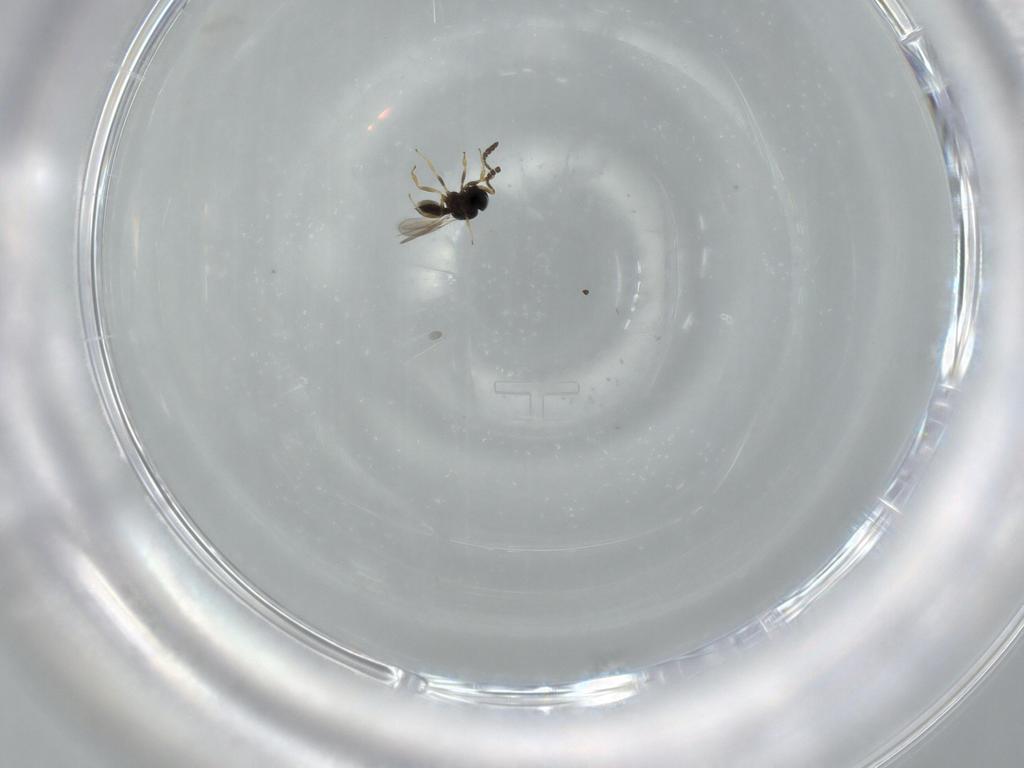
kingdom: Animalia
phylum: Arthropoda
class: Insecta
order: Hymenoptera
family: Scelionidae
